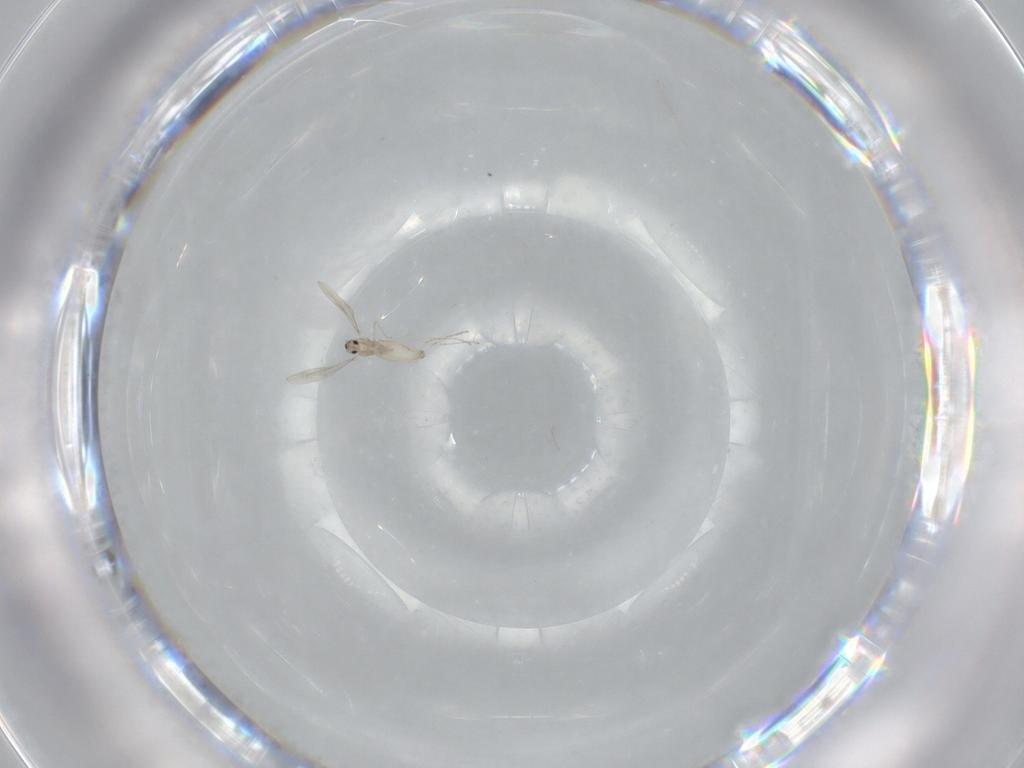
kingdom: Animalia
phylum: Arthropoda
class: Insecta
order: Diptera
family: Cecidomyiidae
